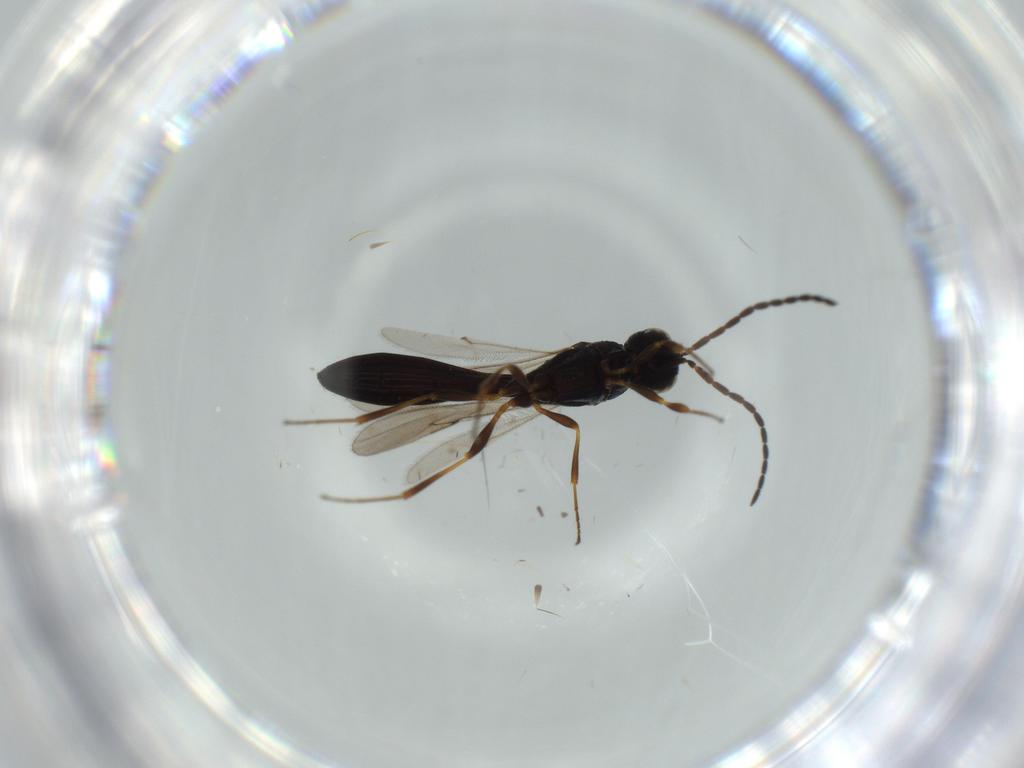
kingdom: Animalia
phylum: Arthropoda
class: Insecta
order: Hymenoptera
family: Scelionidae
